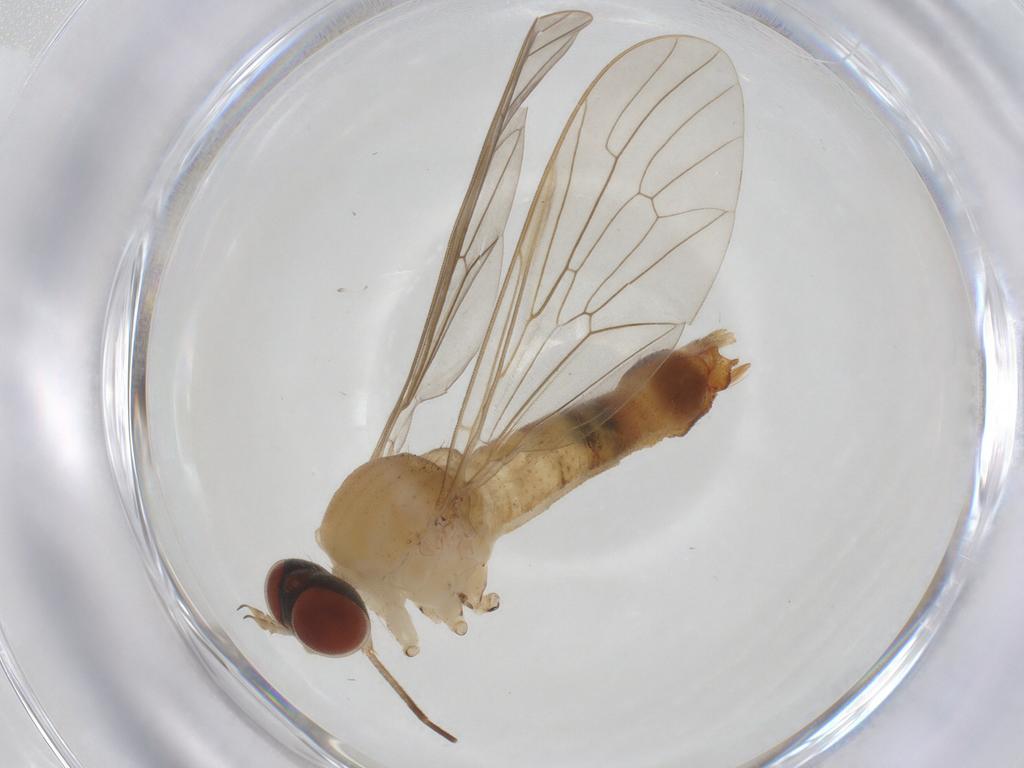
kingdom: Animalia
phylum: Arthropoda
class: Insecta
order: Diptera
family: Apsilocephalidae
